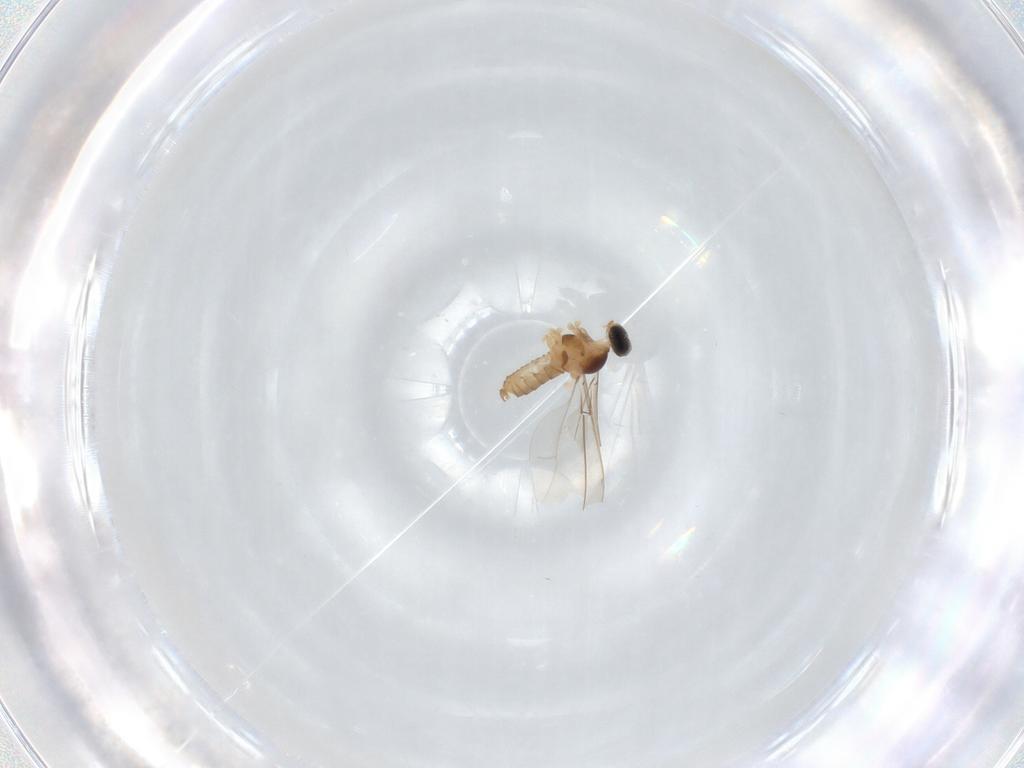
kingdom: Animalia
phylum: Arthropoda
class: Insecta
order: Diptera
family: Cecidomyiidae
